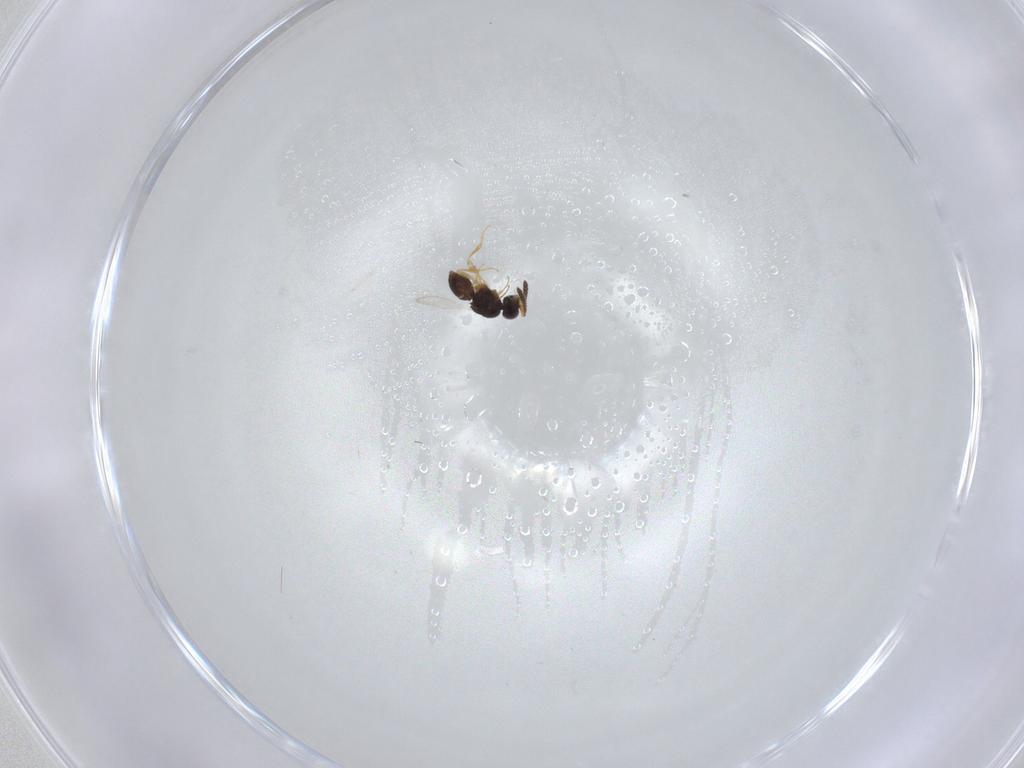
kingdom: Animalia
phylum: Arthropoda
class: Insecta
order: Hymenoptera
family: Ceraphronidae
